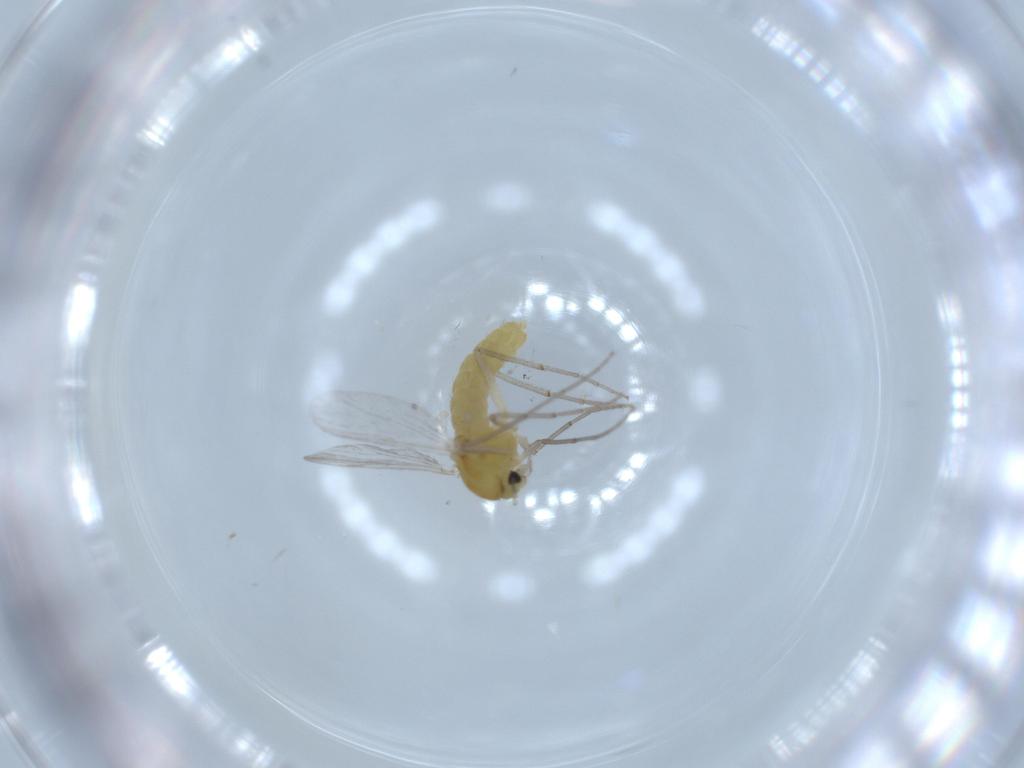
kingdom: Animalia
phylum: Arthropoda
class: Insecta
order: Diptera
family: Chironomidae
